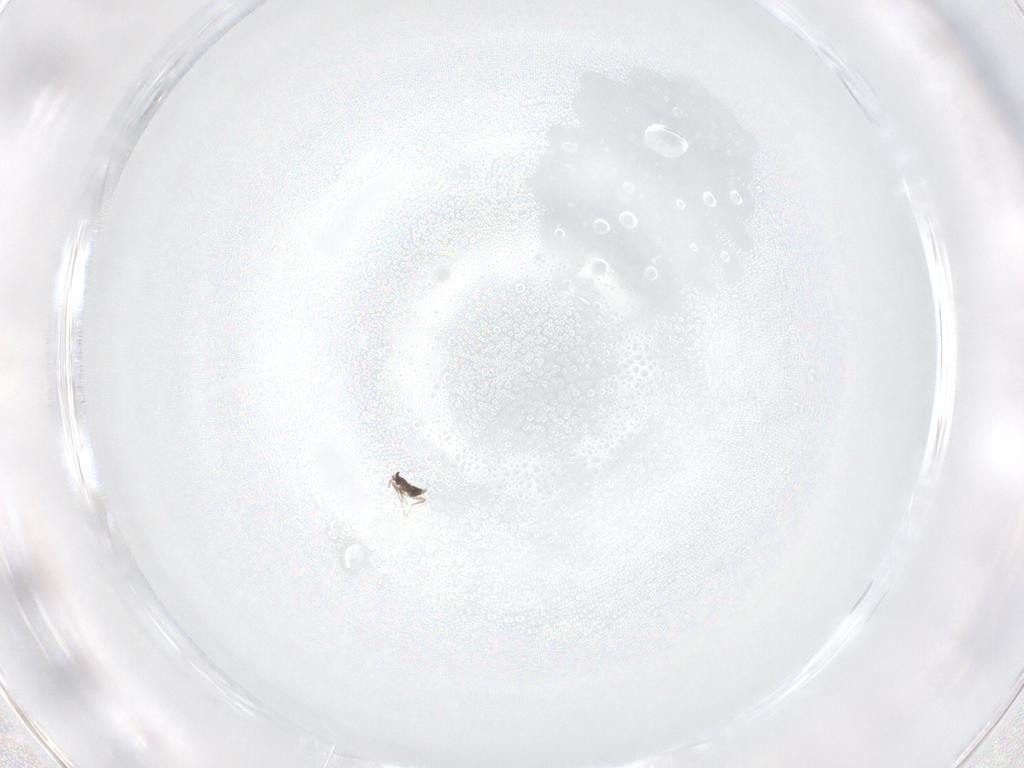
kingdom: Animalia
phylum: Arthropoda
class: Insecta
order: Hymenoptera
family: Mymaridae
